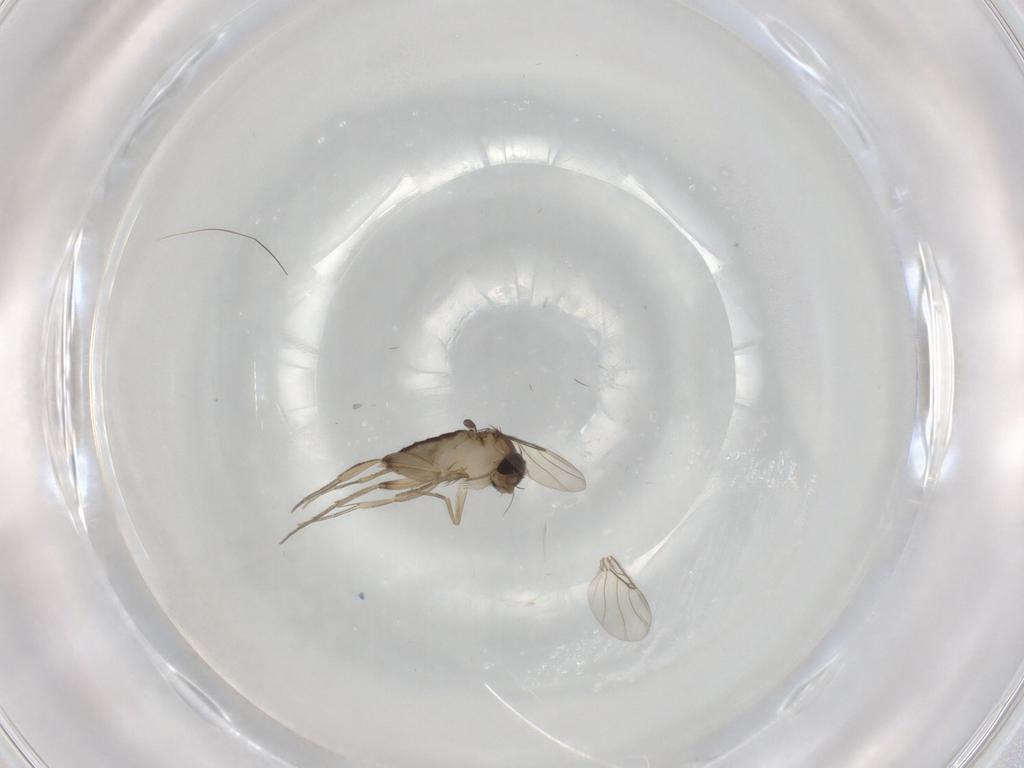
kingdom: Animalia
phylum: Arthropoda
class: Insecta
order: Diptera
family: Phoridae
